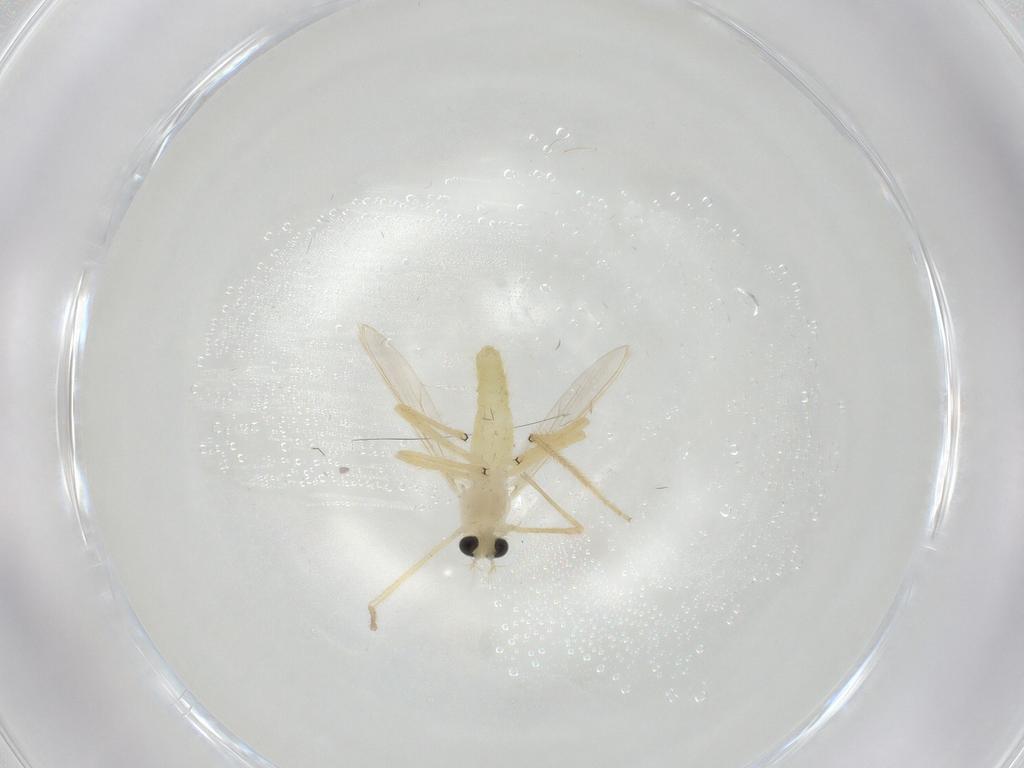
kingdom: Animalia
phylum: Arthropoda
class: Insecta
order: Diptera
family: Chironomidae
